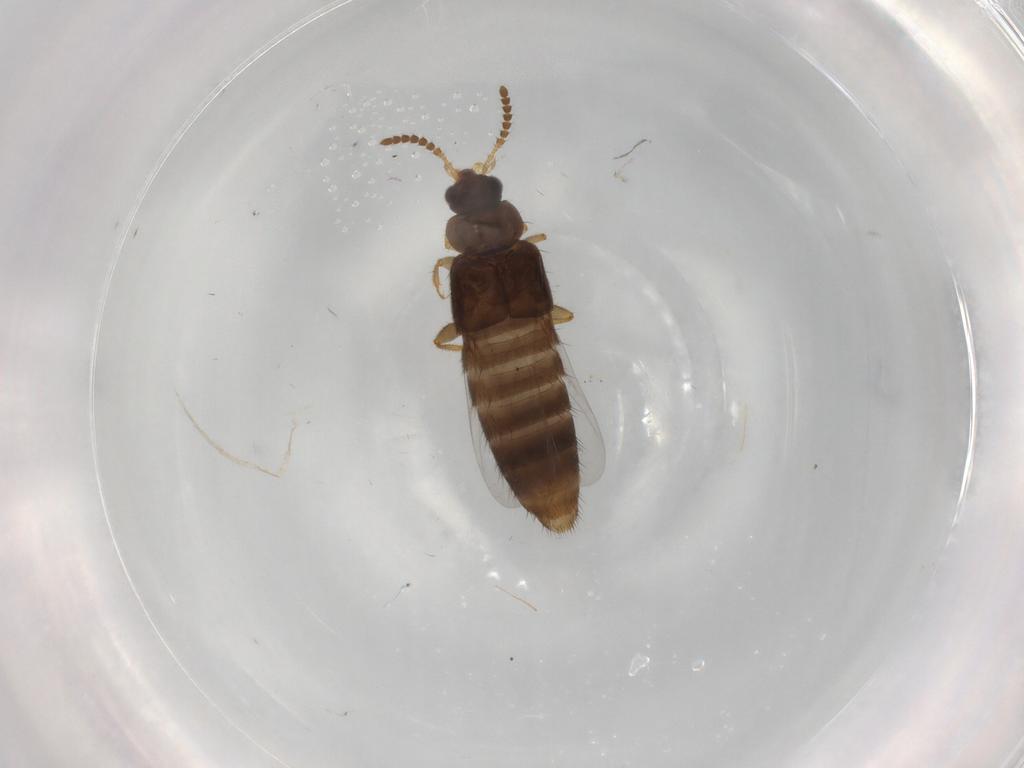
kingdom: Animalia
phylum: Arthropoda
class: Insecta
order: Coleoptera
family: Staphylinidae
